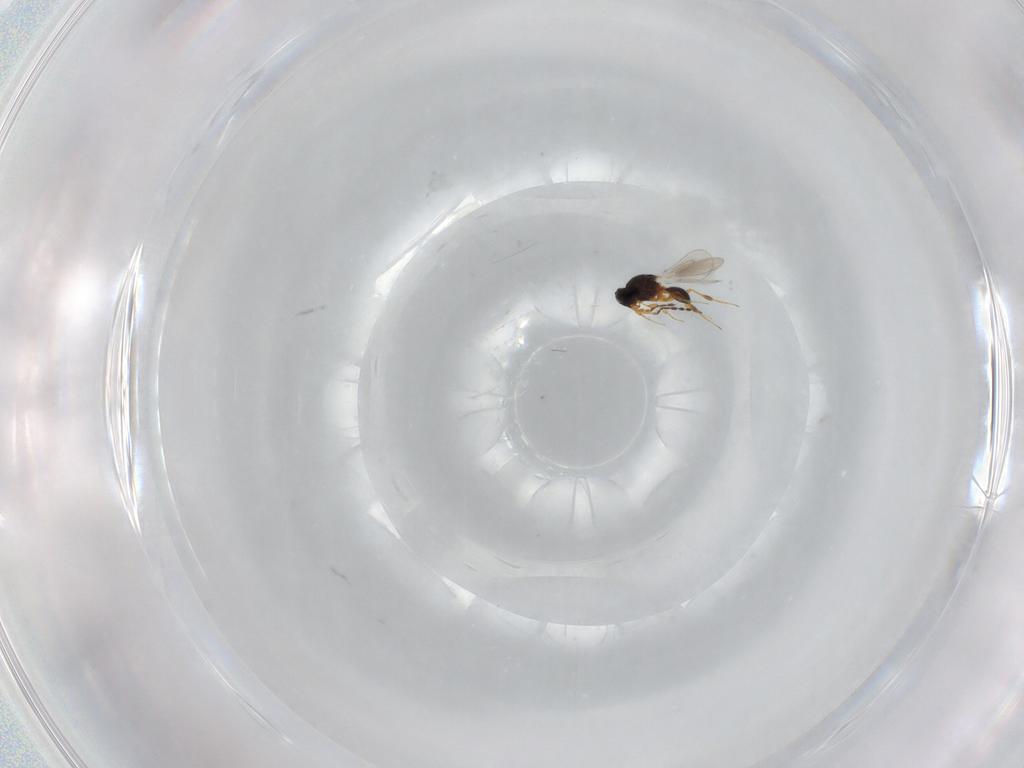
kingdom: Animalia
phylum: Arthropoda
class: Insecta
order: Hymenoptera
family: Platygastridae
